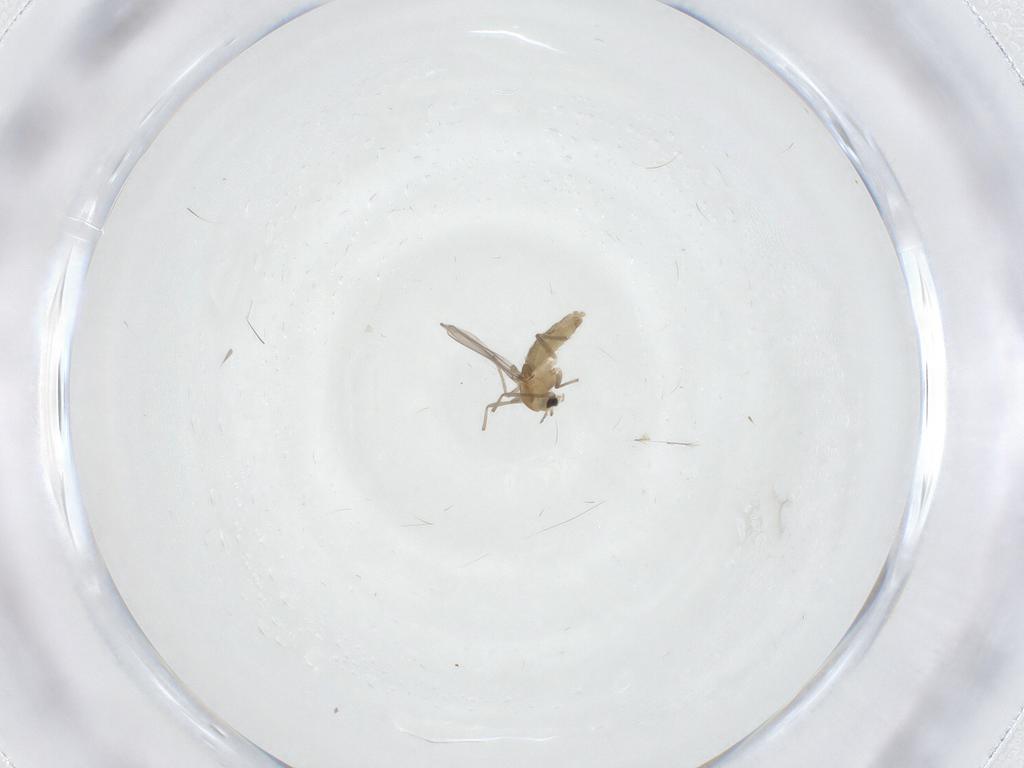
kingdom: Animalia
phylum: Arthropoda
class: Insecta
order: Diptera
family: Chironomidae
